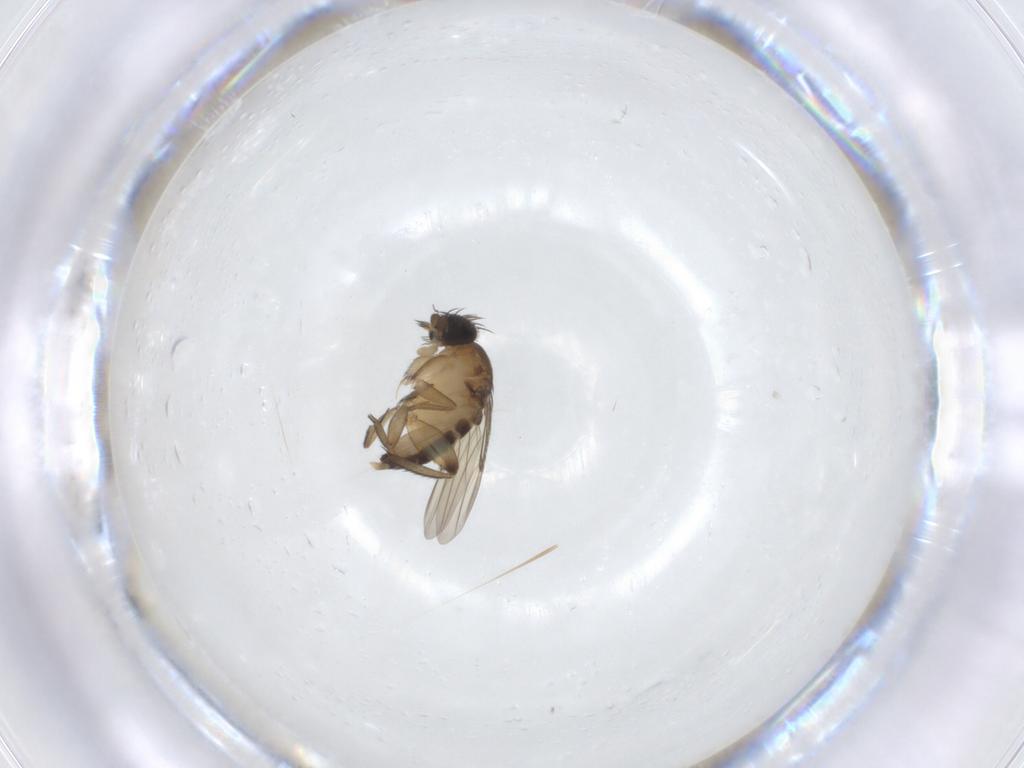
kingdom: Animalia
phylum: Arthropoda
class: Insecta
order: Diptera
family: Phoridae
